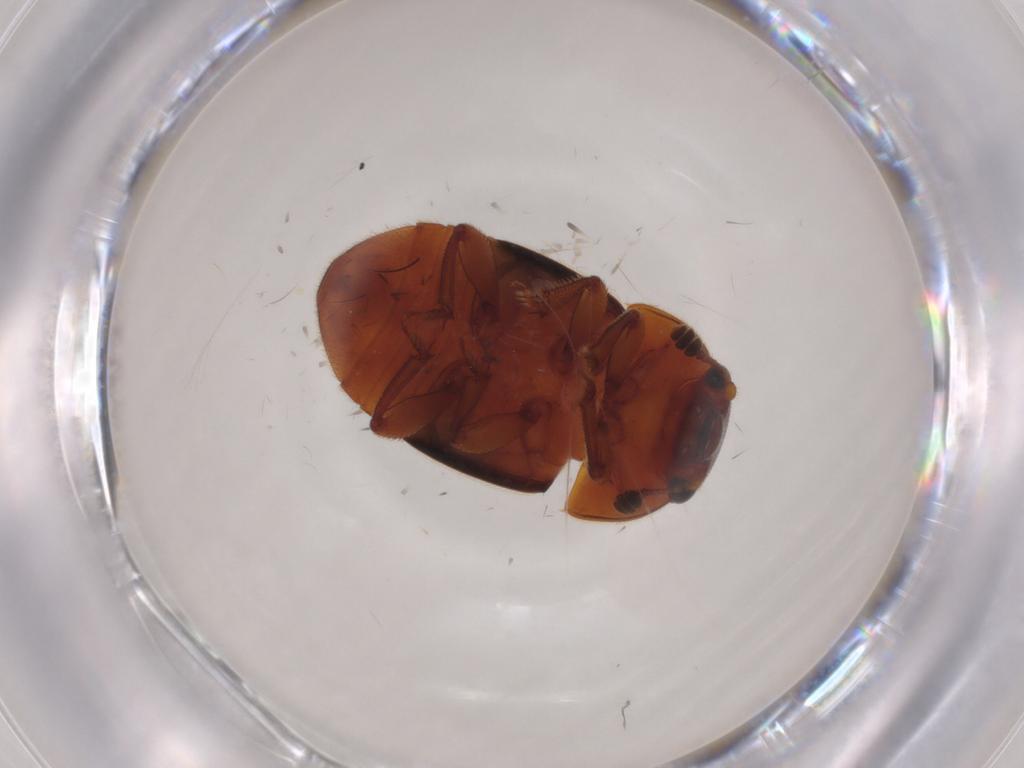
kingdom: Animalia
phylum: Arthropoda
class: Insecta
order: Coleoptera
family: Nitidulidae
